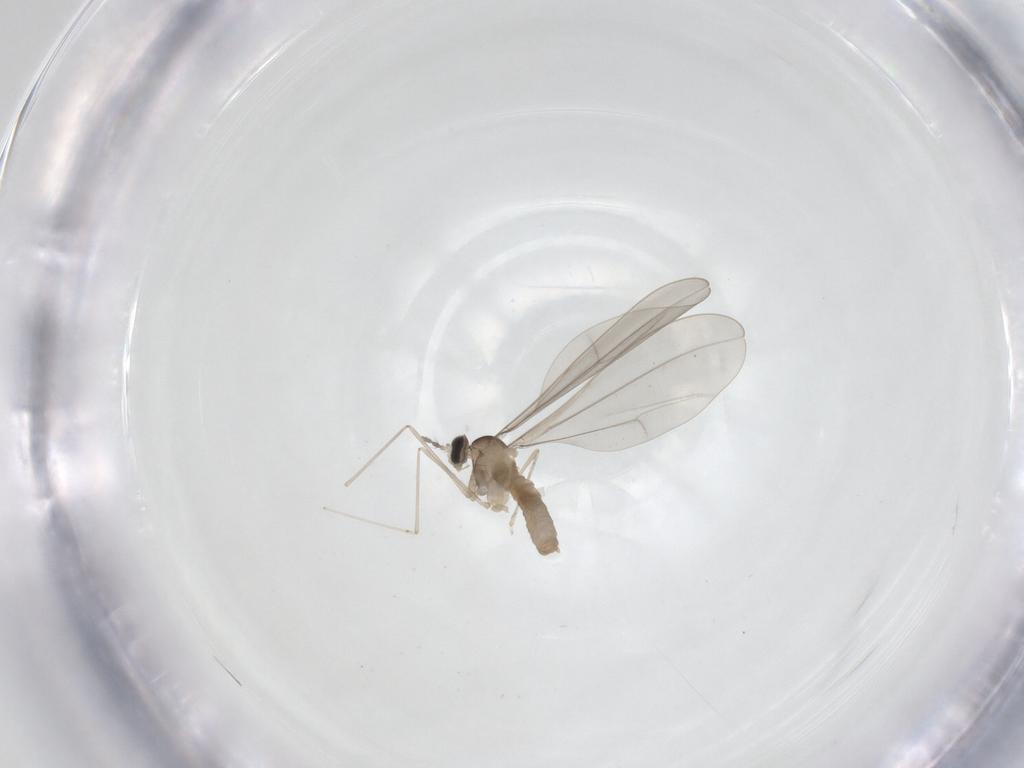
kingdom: Animalia
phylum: Arthropoda
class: Insecta
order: Diptera
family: Cecidomyiidae
